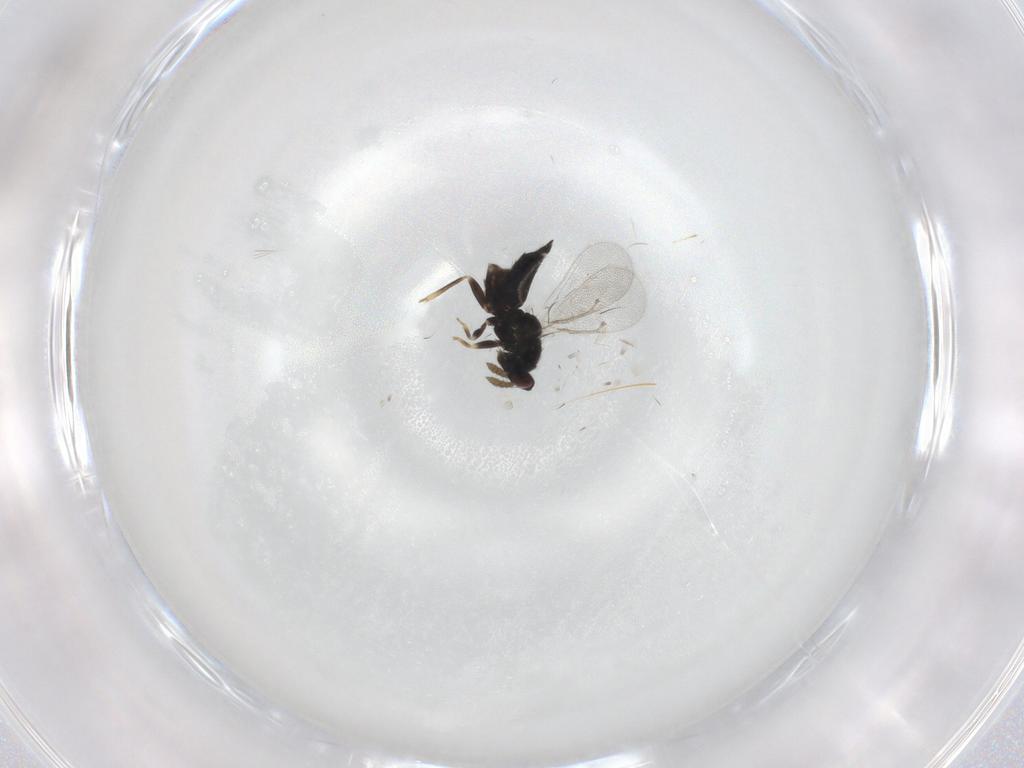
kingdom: Animalia
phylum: Arthropoda
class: Insecta
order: Hymenoptera
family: Eulophidae
